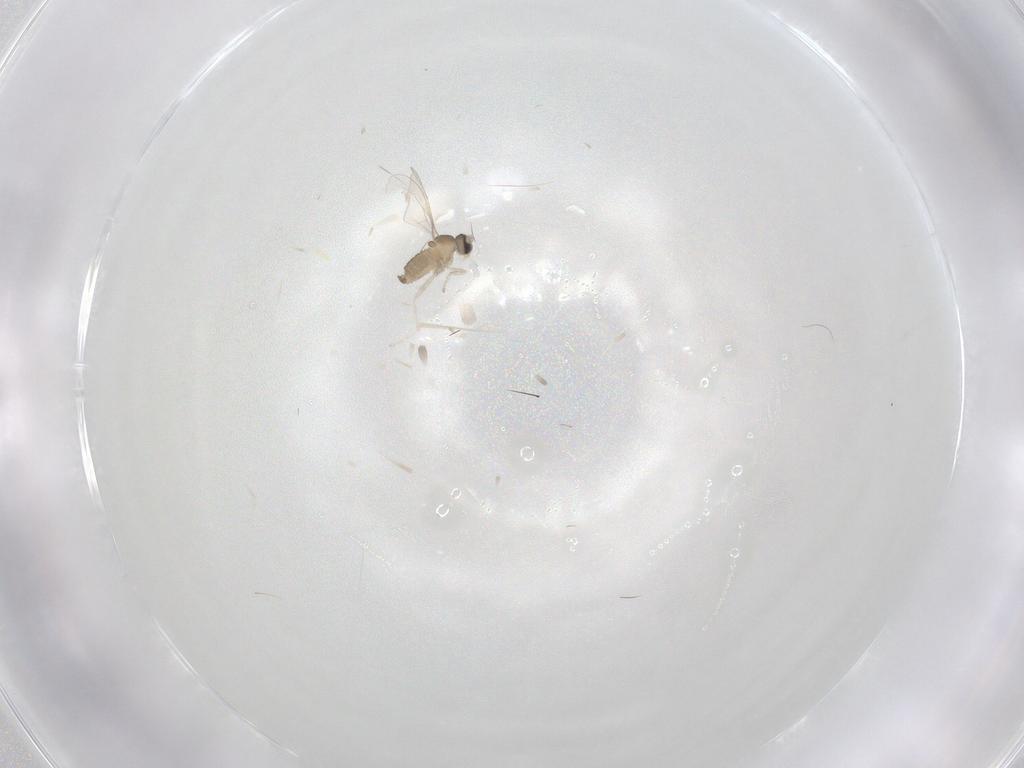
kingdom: Animalia
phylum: Arthropoda
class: Insecta
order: Diptera
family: Cecidomyiidae
